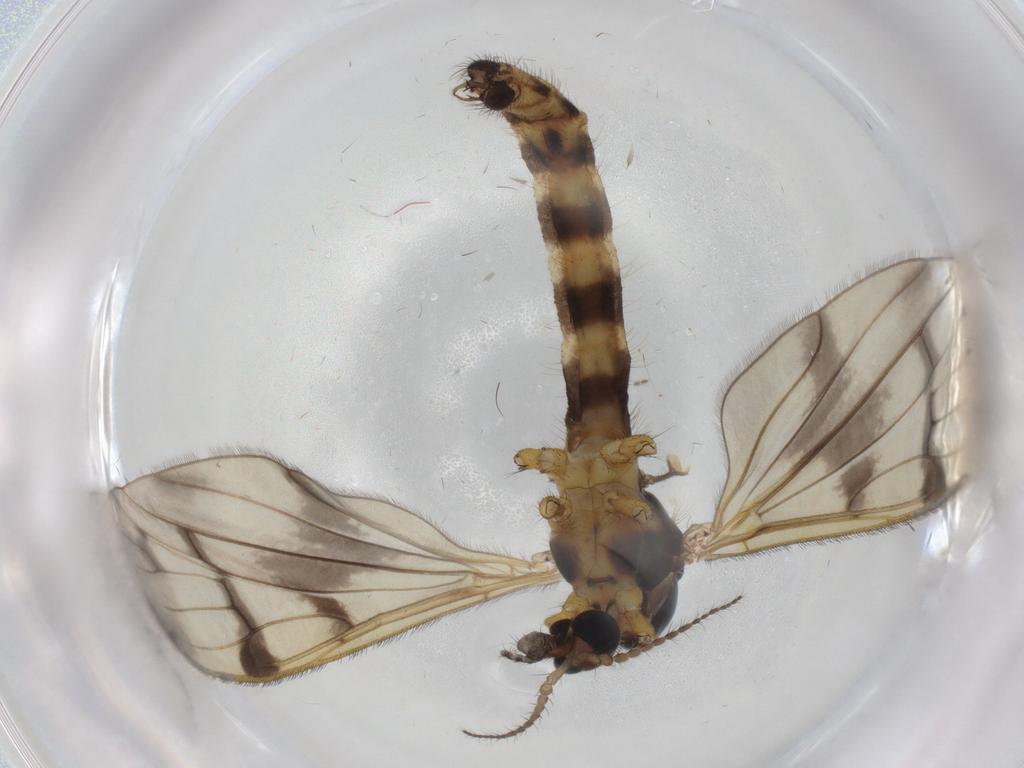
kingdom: Animalia
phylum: Arthropoda
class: Insecta
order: Diptera
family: Limoniidae
